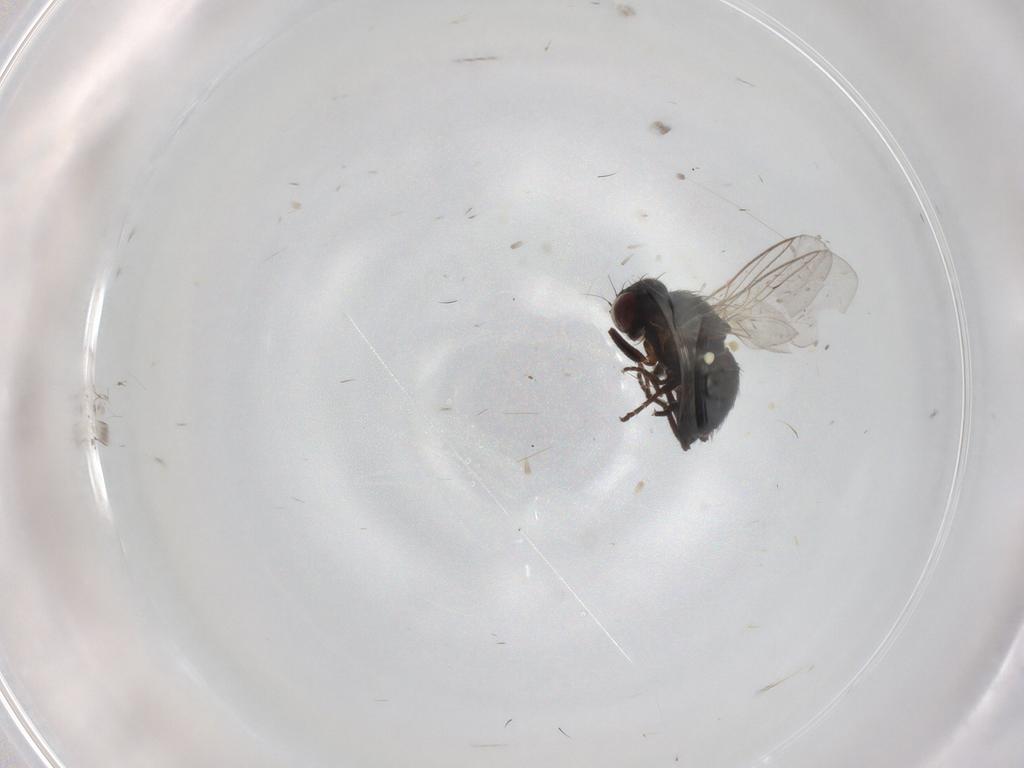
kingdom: Animalia
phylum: Arthropoda
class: Insecta
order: Diptera
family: Agromyzidae
